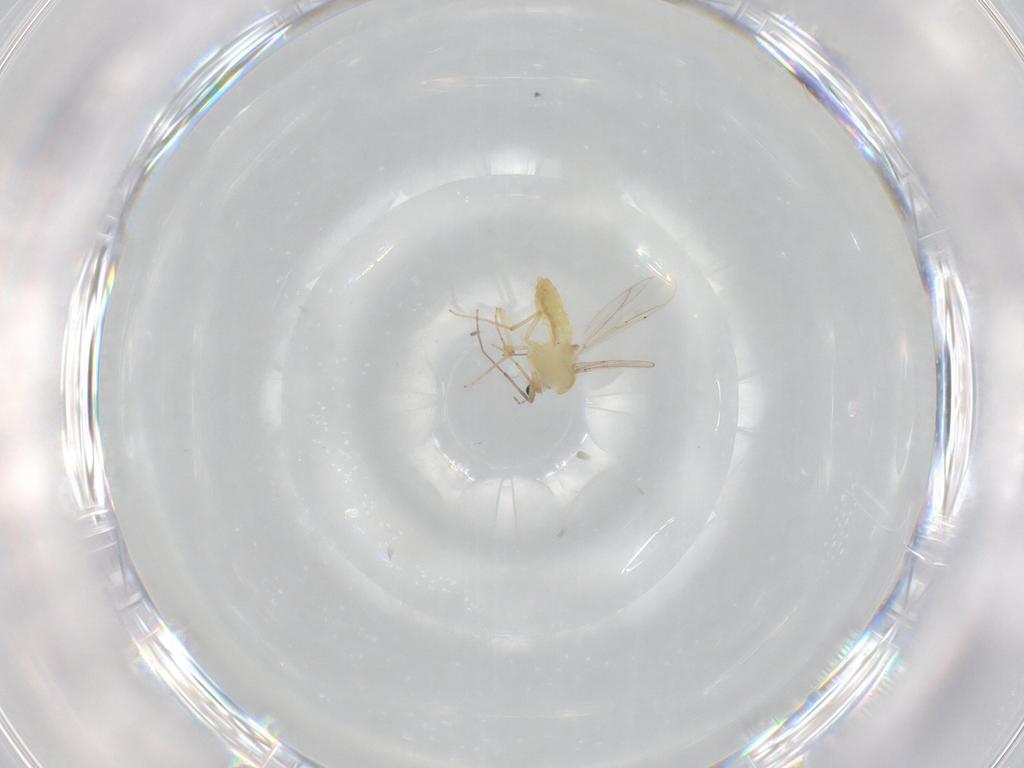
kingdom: Animalia
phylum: Arthropoda
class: Insecta
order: Diptera
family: Chironomidae
